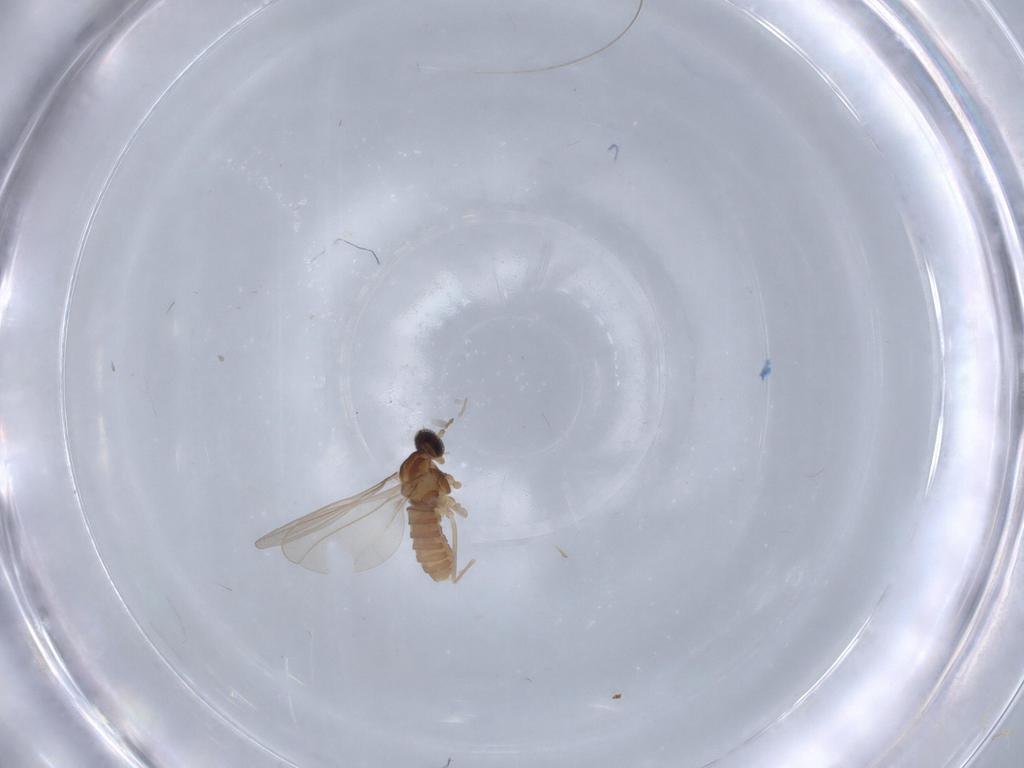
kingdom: Animalia
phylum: Arthropoda
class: Insecta
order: Diptera
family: Cecidomyiidae
